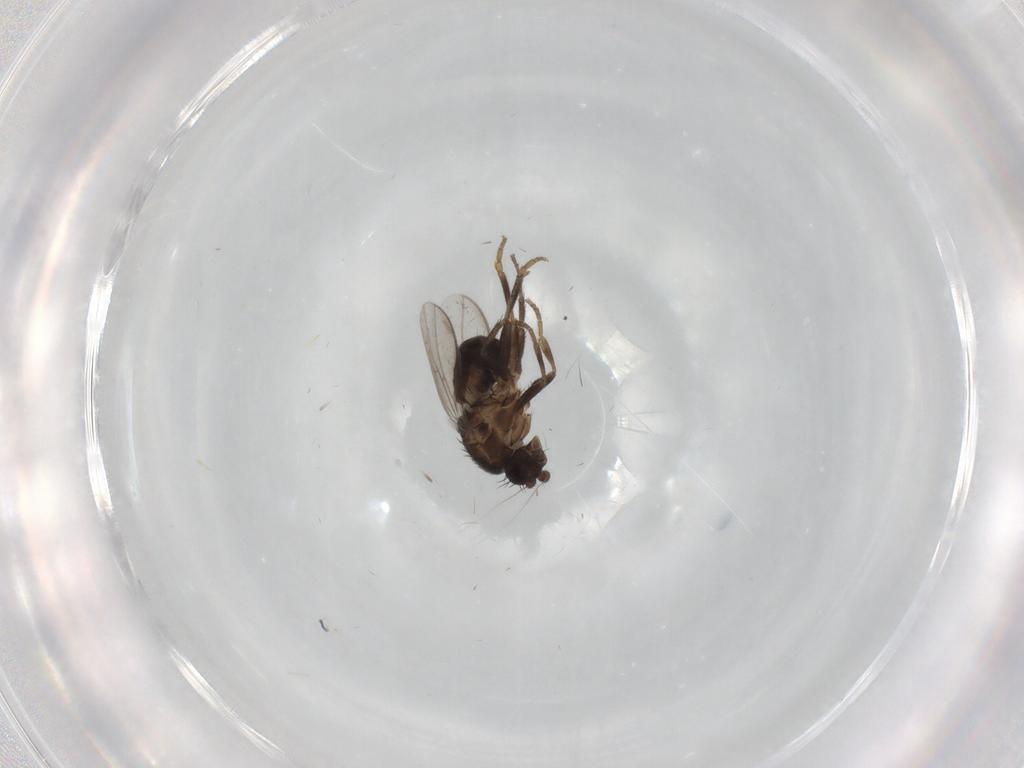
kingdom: Animalia
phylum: Arthropoda
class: Insecta
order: Diptera
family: Sphaeroceridae
